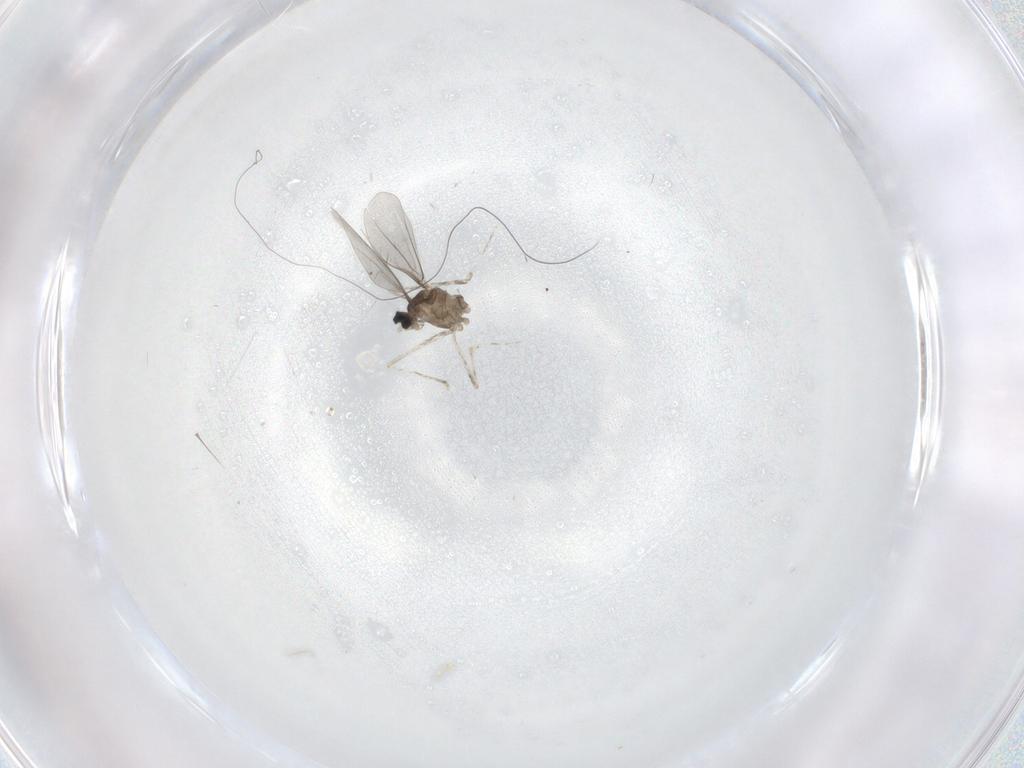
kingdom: Animalia
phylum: Arthropoda
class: Insecta
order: Diptera
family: Cecidomyiidae
